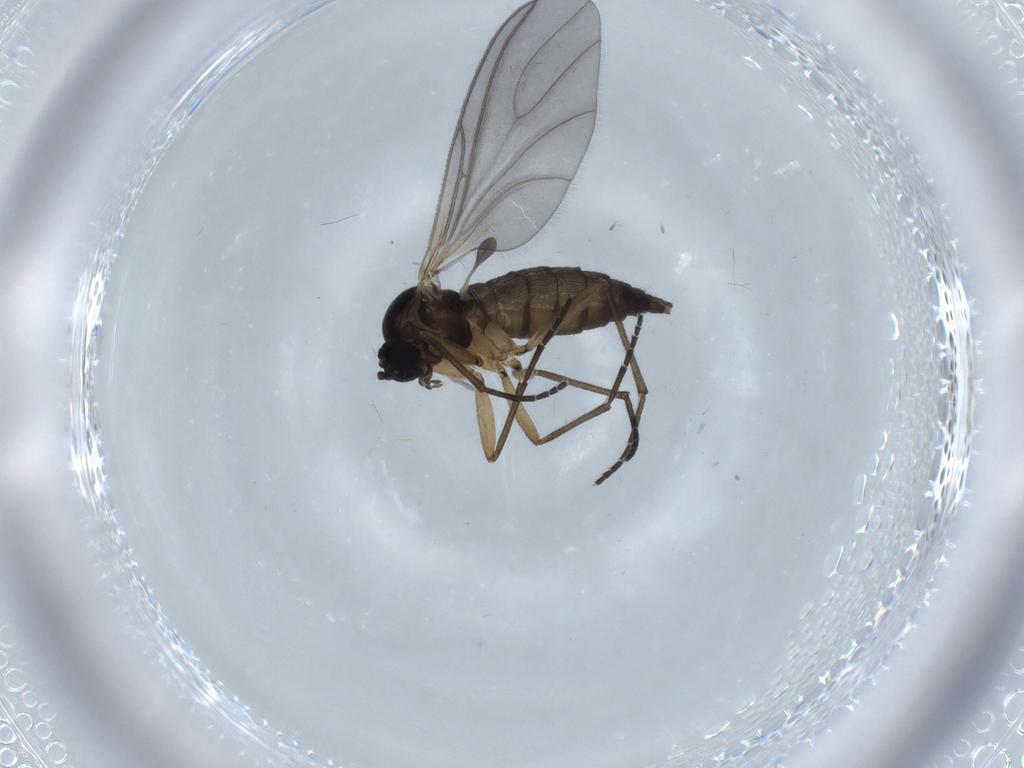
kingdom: Animalia
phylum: Arthropoda
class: Insecta
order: Diptera
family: Sciaridae
